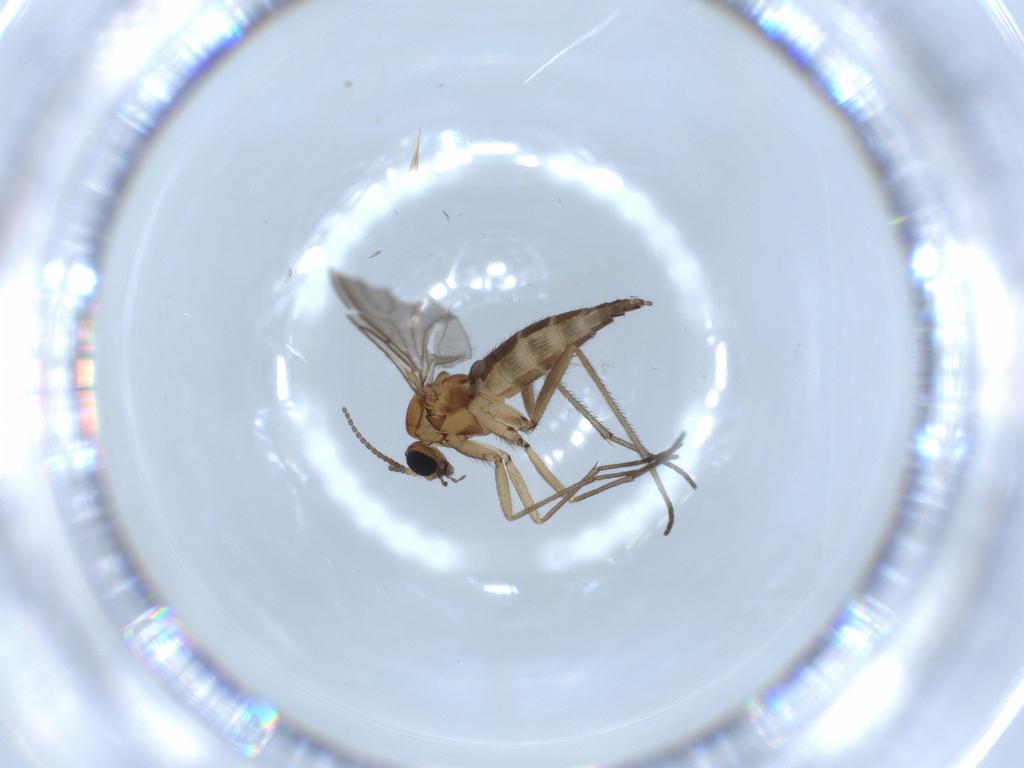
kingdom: Animalia
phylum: Arthropoda
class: Insecta
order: Diptera
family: Sciaridae
